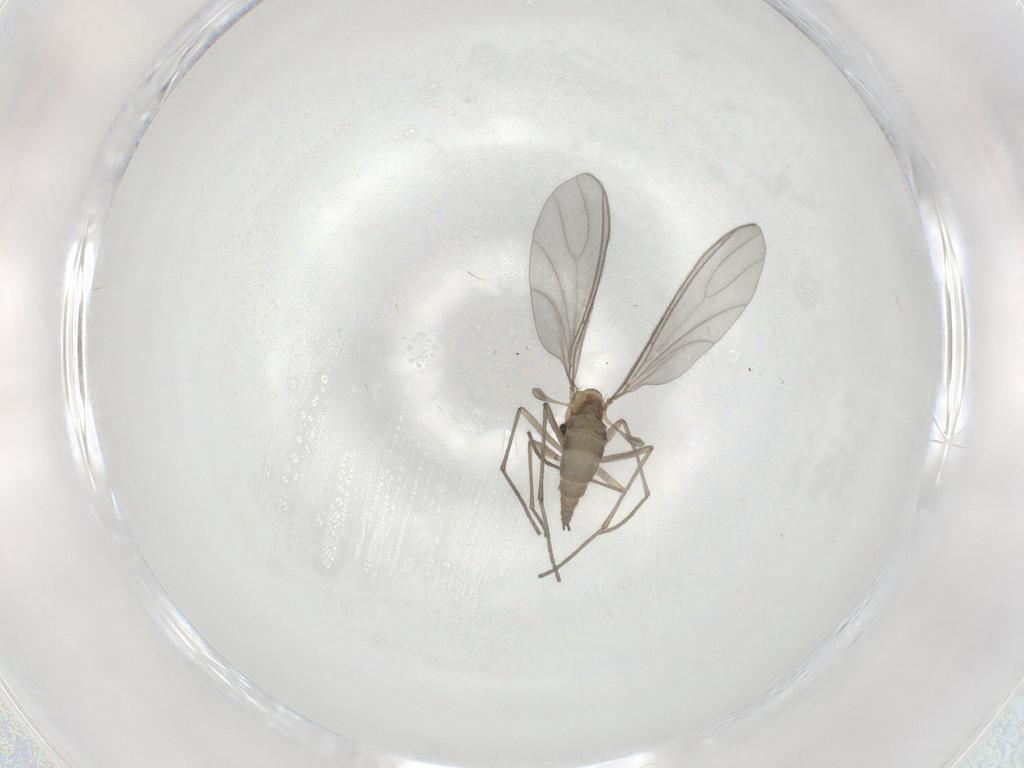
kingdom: Animalia
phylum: Arthropoda
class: Insecta
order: Diptera
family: Sciaridae
